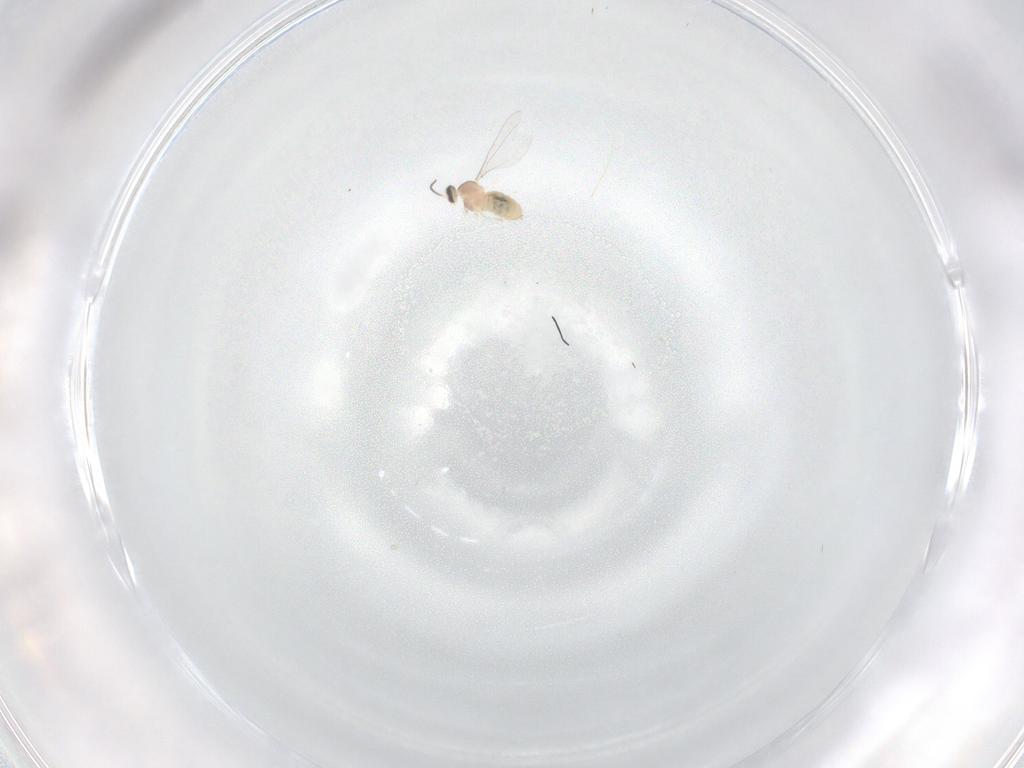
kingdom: Animalia
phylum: Arthropoda
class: Insecta
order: Diptera
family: Cecidomyiidae
